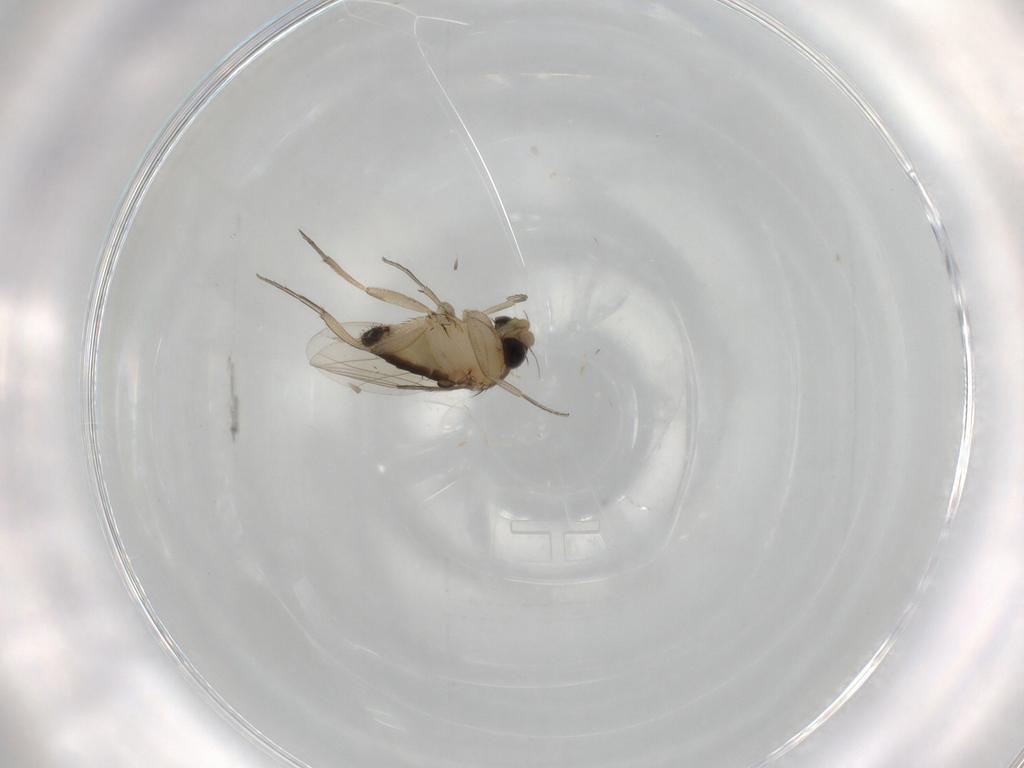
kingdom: Animalia
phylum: Arthropoda
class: Insecta
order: Diptera
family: Phoridae
